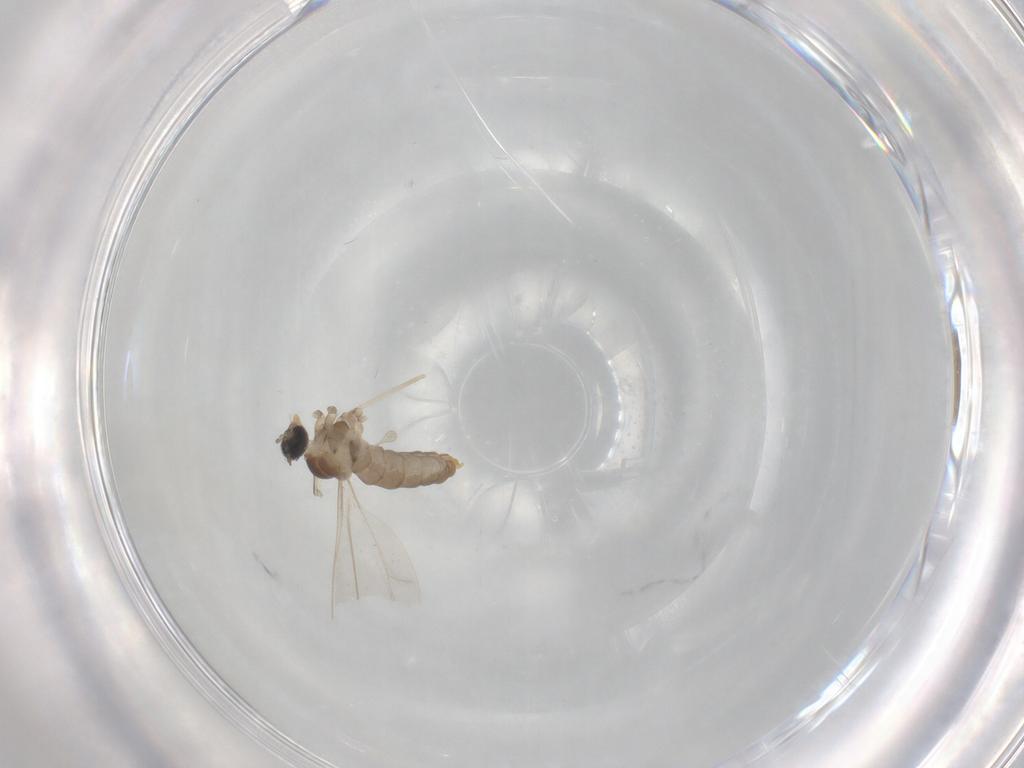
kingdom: Animalia
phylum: Arthropoda
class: Insecta
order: Diptera
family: Cecidomyiidae
